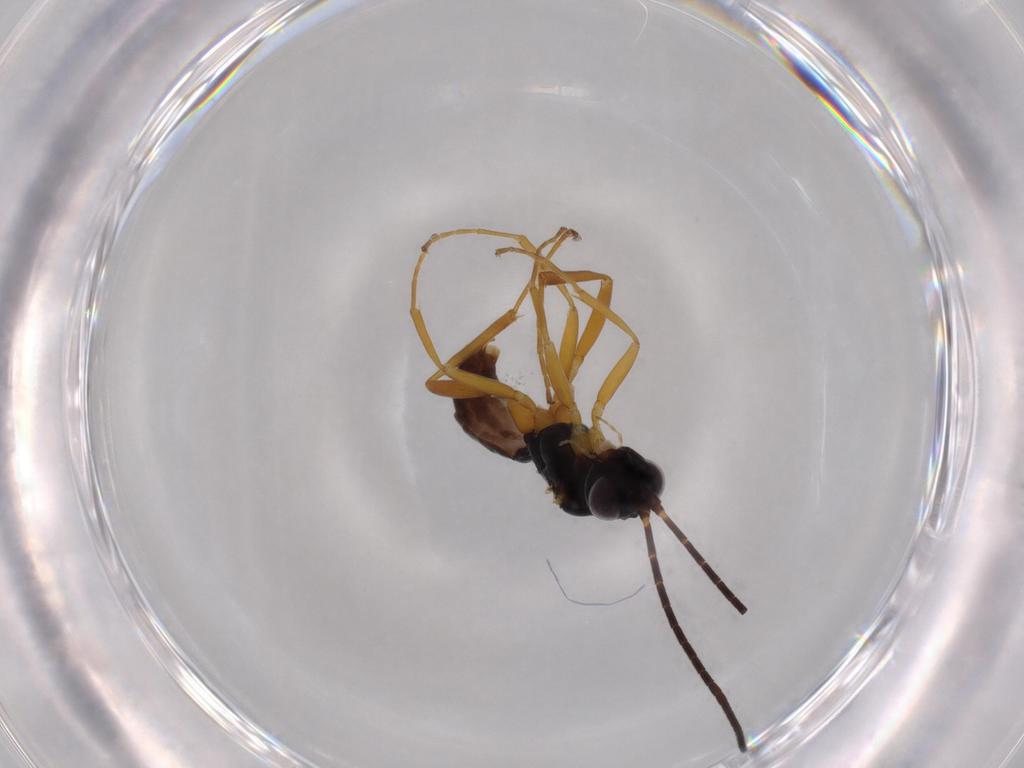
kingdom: Animalia
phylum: Arthropoda
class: Insecta
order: Hymenoptera
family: Ichneumonidae
